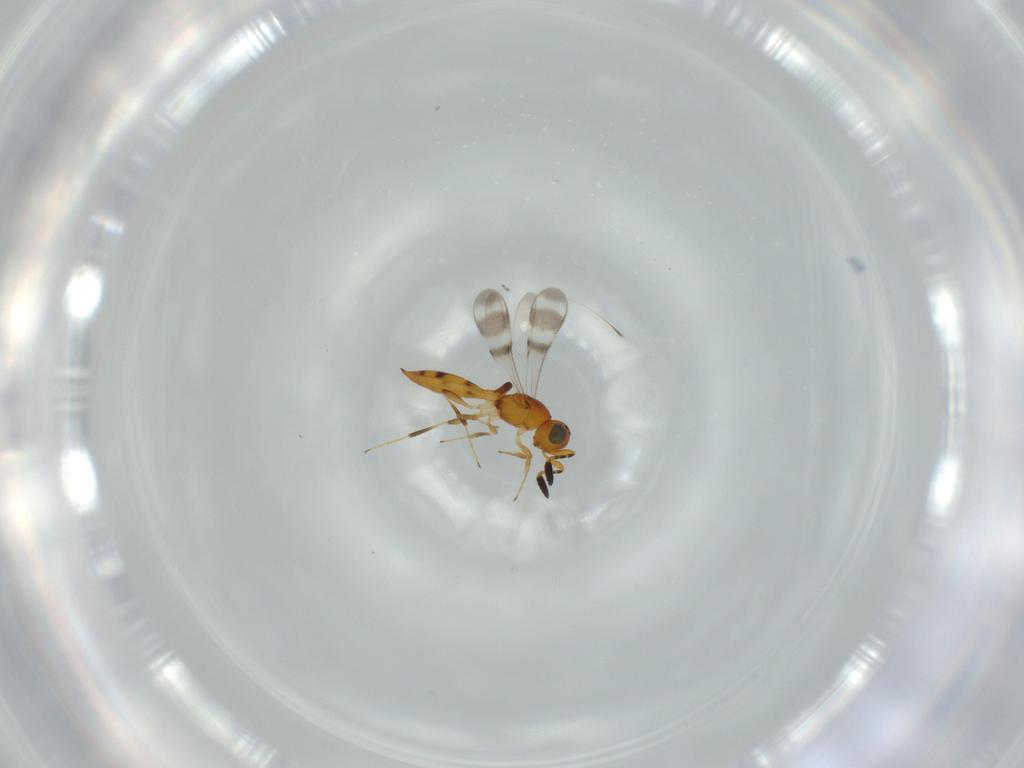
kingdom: Animalia
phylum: Arthropoda
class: Insecta
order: Hymenoptera
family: Scelionidae
